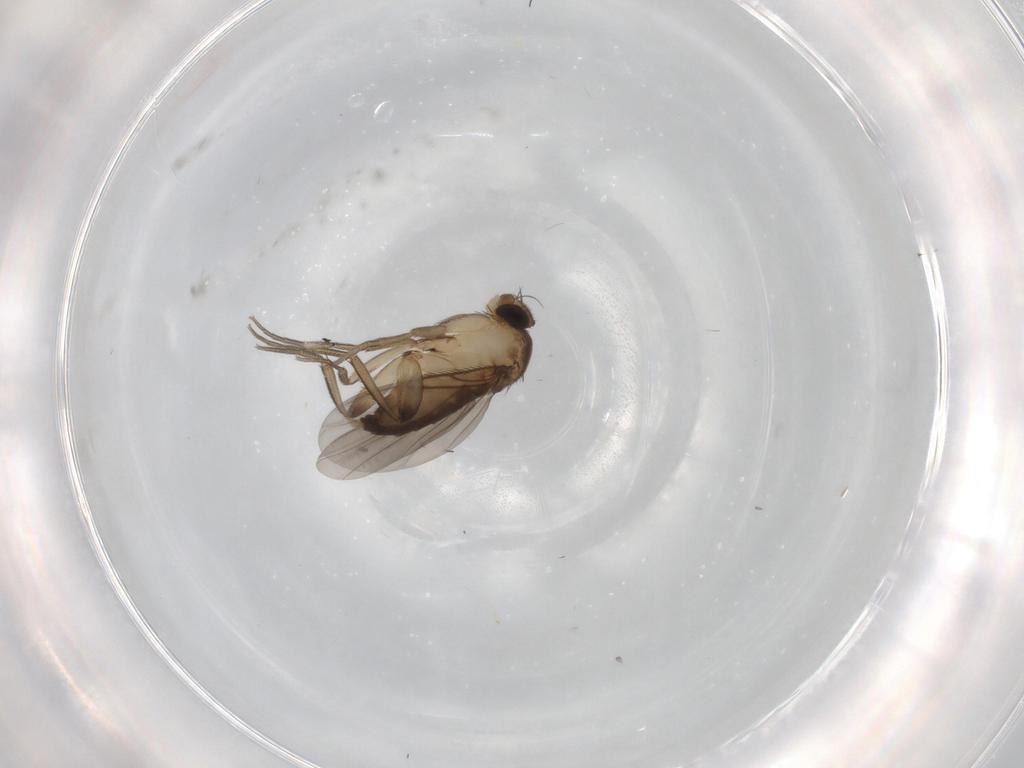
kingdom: Animalia
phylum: Arthropoda
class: Insecta
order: Diptera
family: Phoridae
